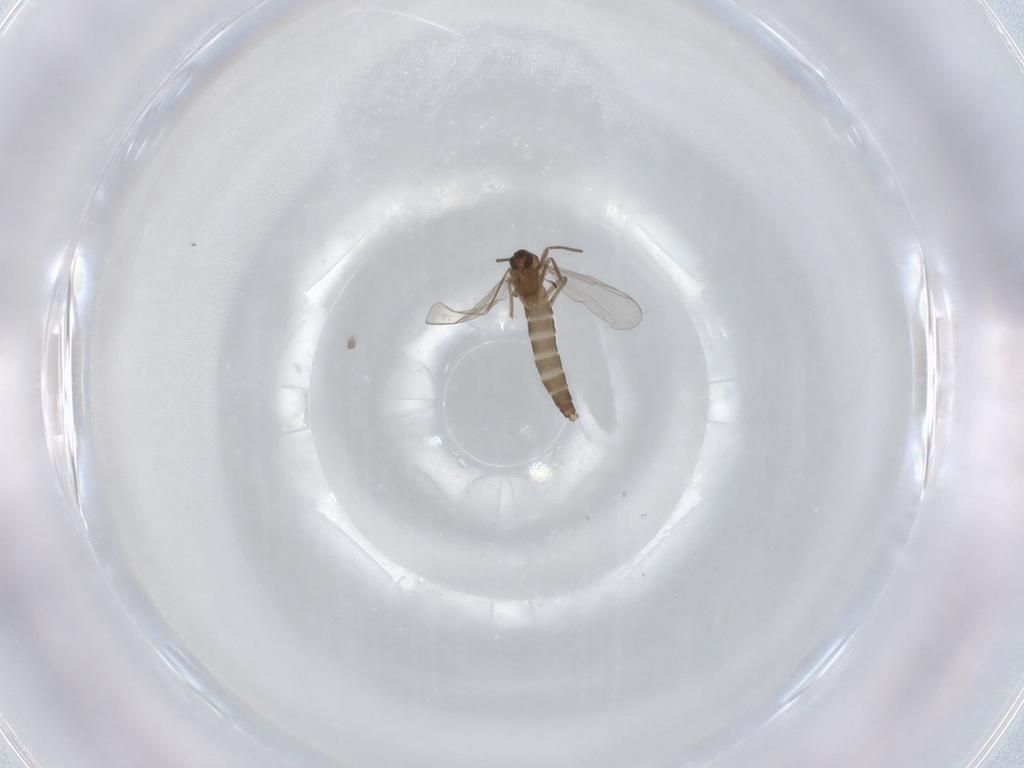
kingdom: Animalia
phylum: Arthropoda
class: Insecta
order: Diptera
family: Chironomidae
